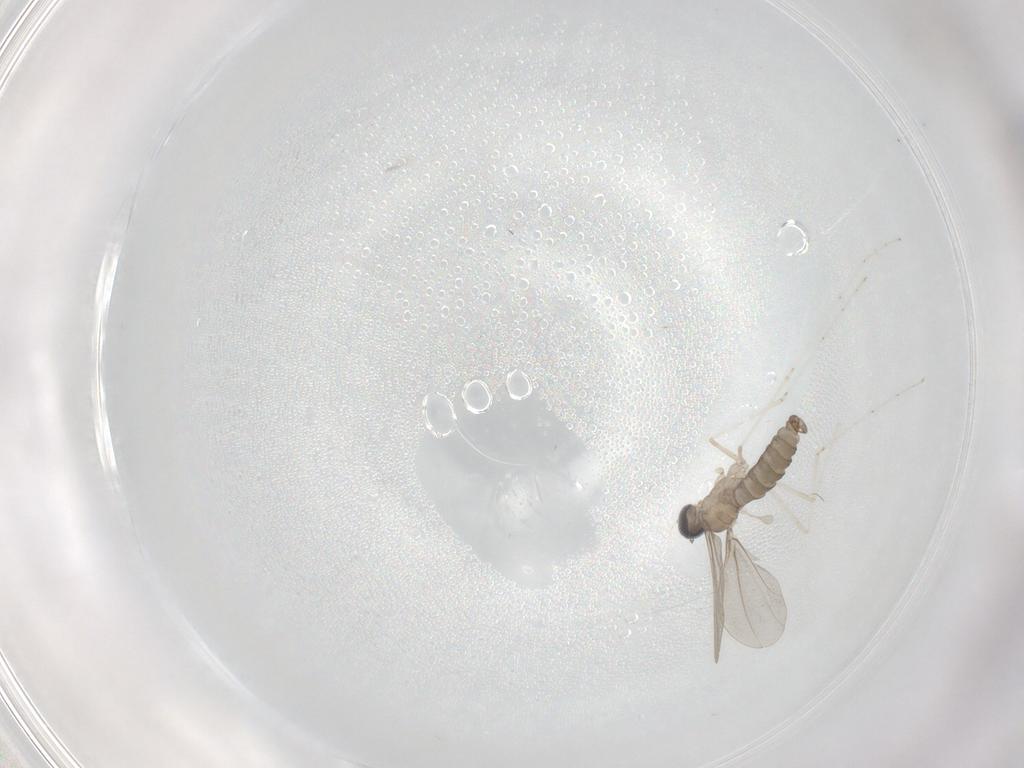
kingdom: Animalia
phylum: Arthropoda
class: Insecta
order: Diptera
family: Cecidomyiidae
